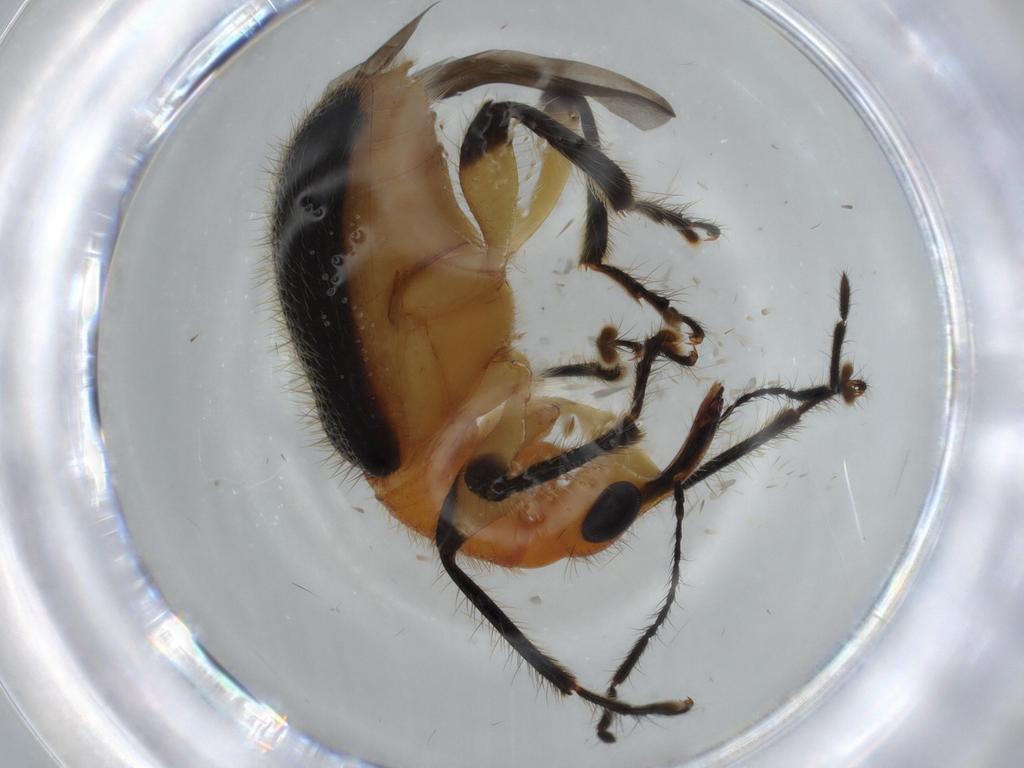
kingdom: Animalia
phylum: Arthropoda
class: Insecta
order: Coleoptera
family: Attelabidae
